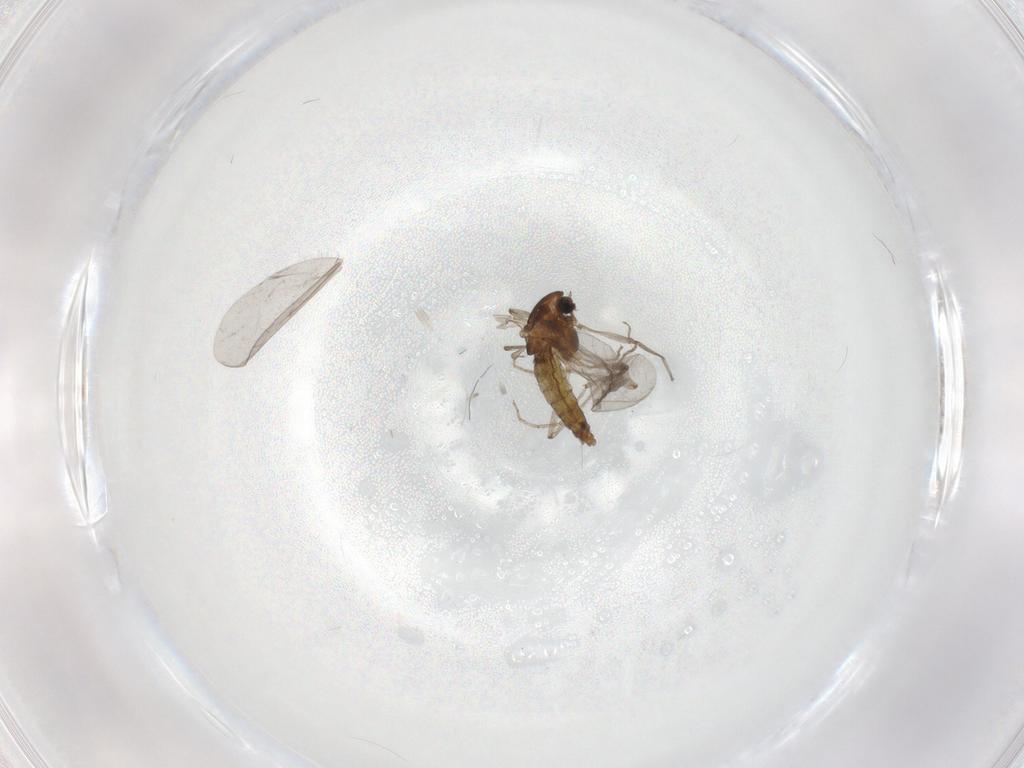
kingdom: Animalia
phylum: Arthropoda
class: Insecta
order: Diptera
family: Chironomidae
